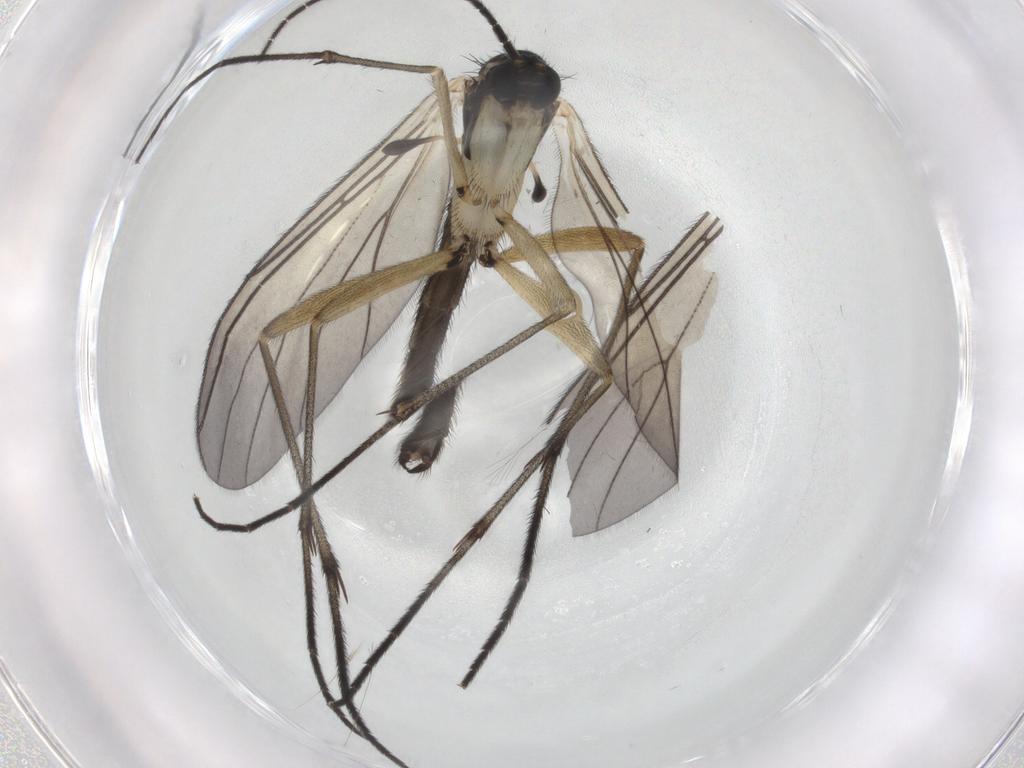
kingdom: Animalia
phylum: Arthropoda
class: Insecta
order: Diptera
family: Sciaridae
